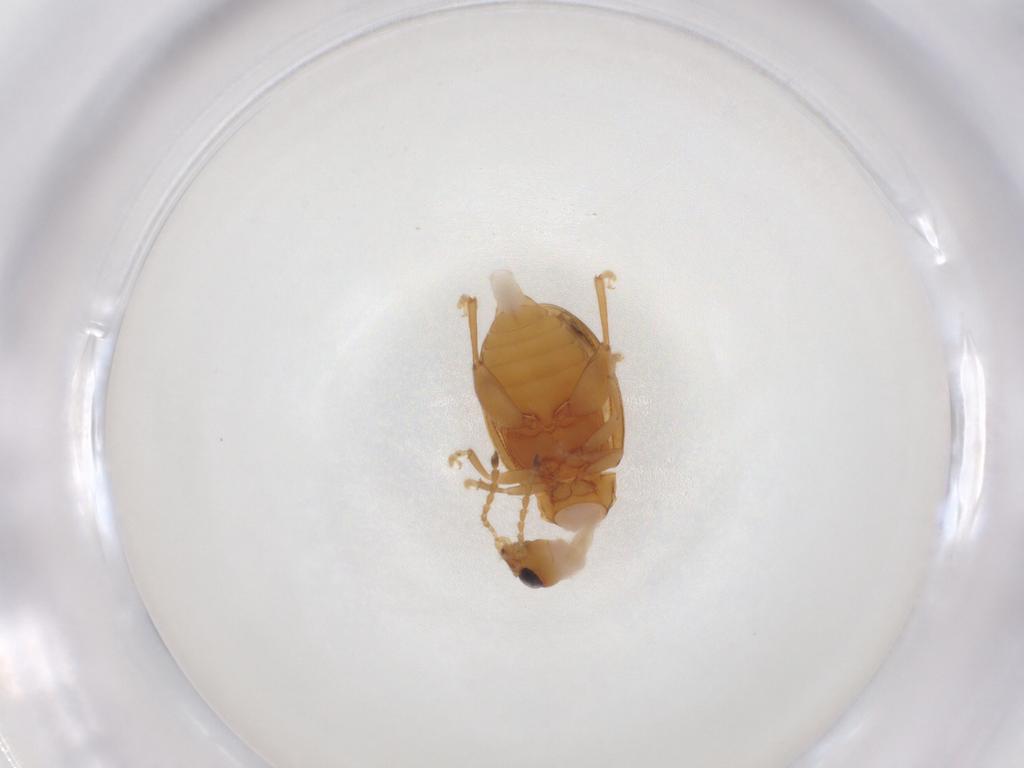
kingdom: Animalia
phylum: Arthropoda
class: Insecta
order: Coleoptera
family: Chrysomelidae
